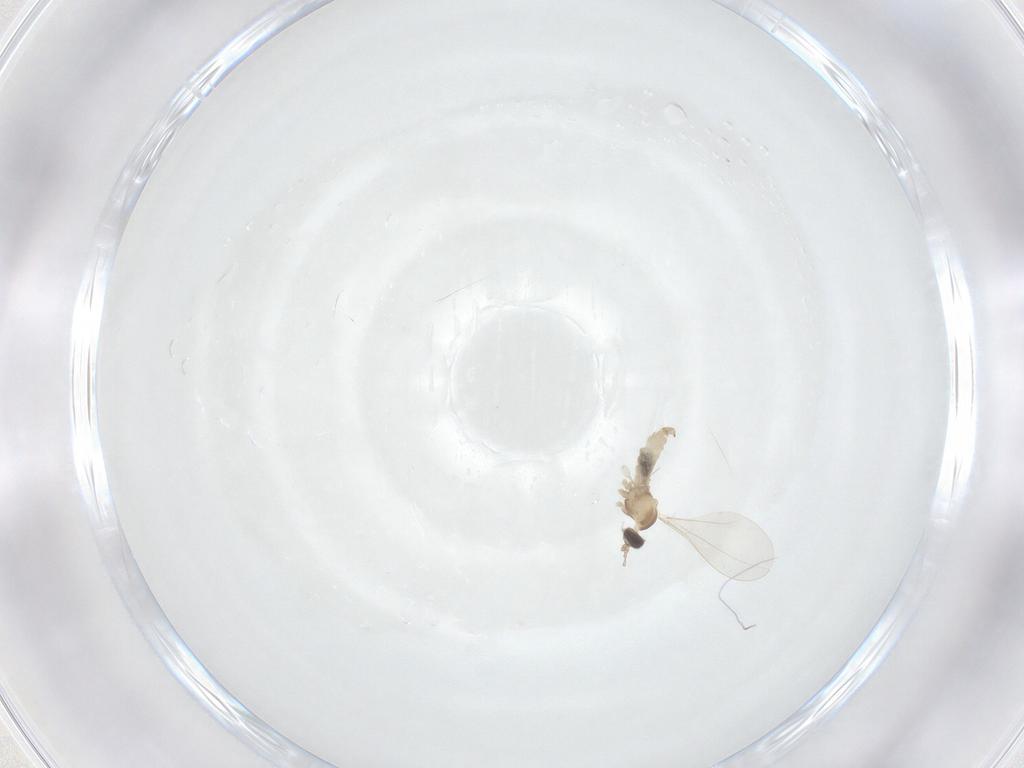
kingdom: Animalia
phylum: Arthropoda
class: Insecta
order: Diptera
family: Cecidomyiidae
